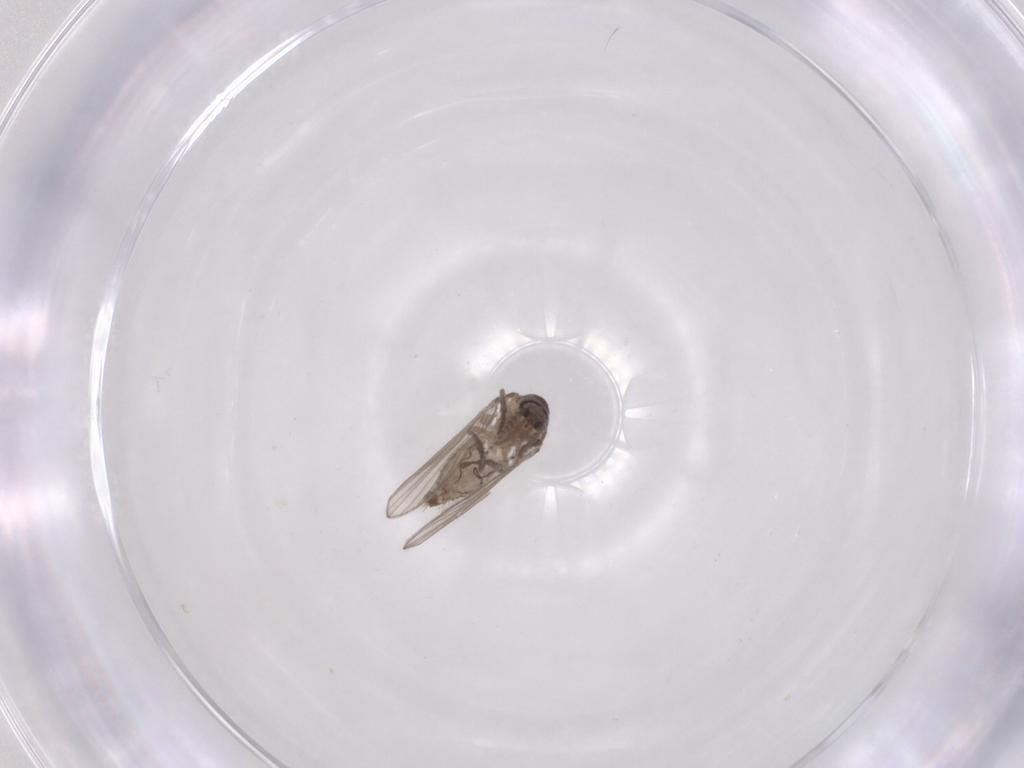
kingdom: Animalia
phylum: Arthropoda
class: Insecta
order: Diptera
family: Psychodidae
